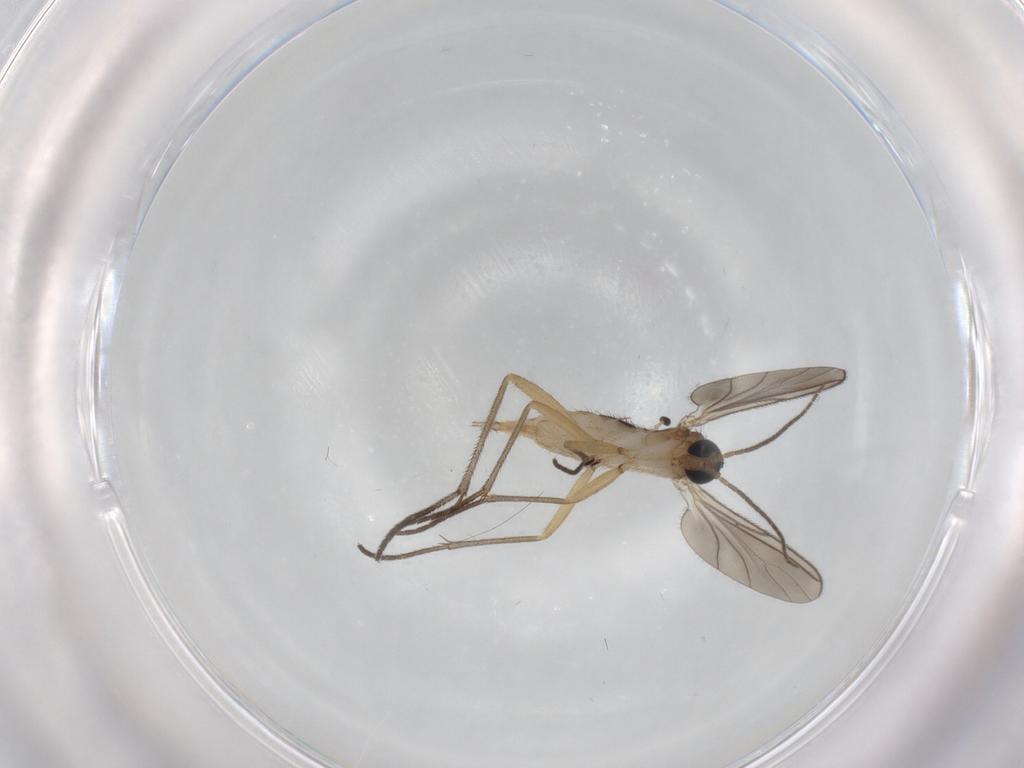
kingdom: Animalia
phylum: Arthropoda
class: Insecta
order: Diptera
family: Sciaridae
